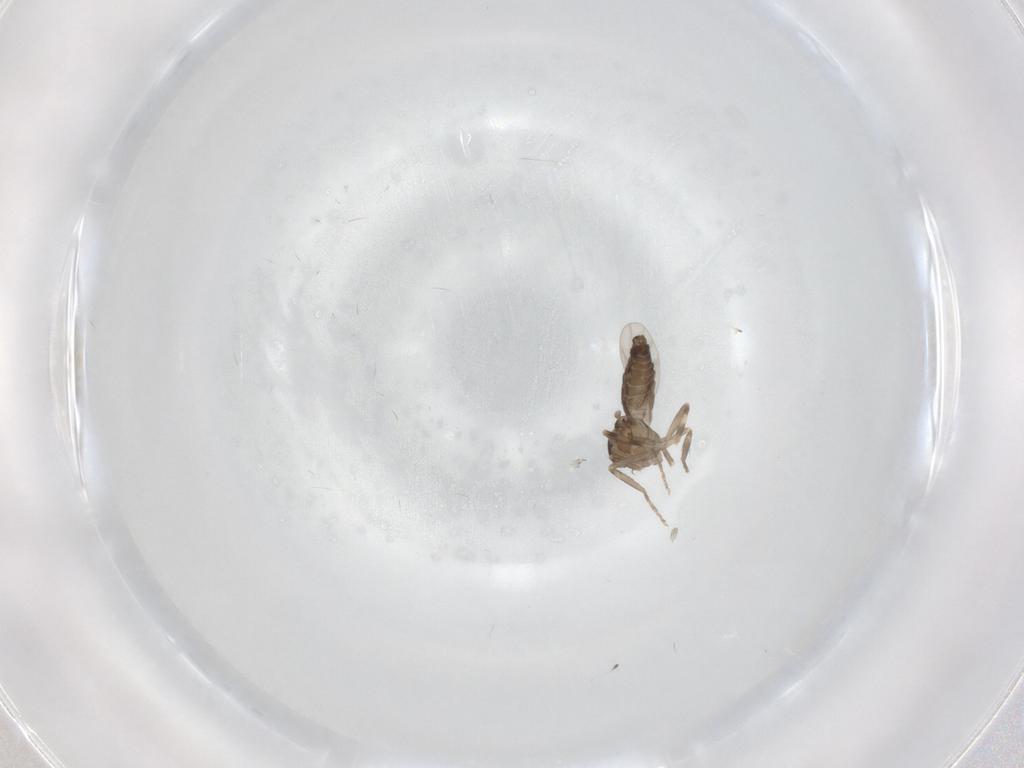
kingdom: Animalia
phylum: Arthropoda
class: Insecta
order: Diptera
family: Ceratopogonidae
